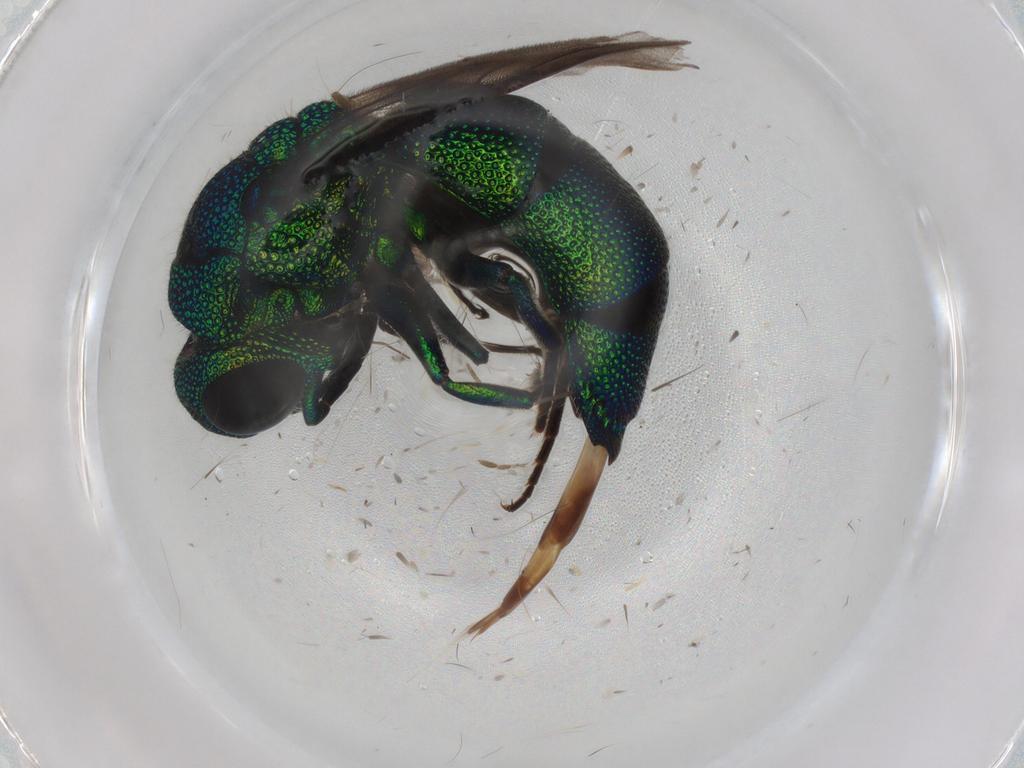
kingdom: Animalia
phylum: Arthropoda
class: Insecta
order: Hymenoptera
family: Chrysididae
